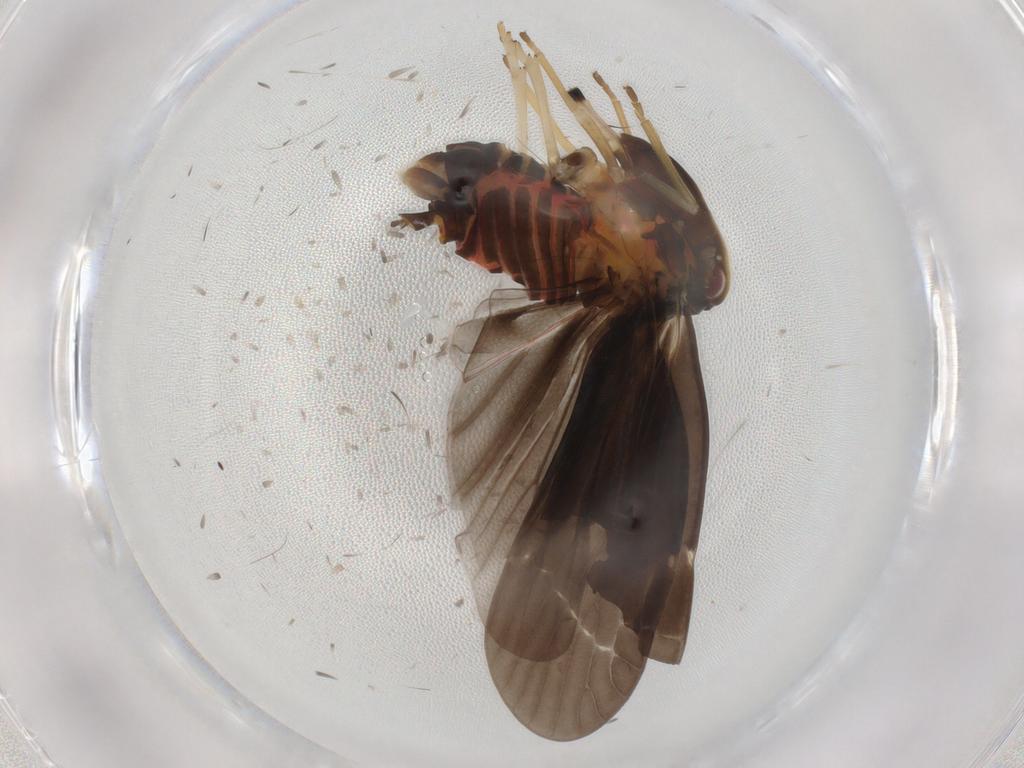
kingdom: Animalia
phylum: Arthropoda
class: Insecta
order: Hemiptera
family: Derbidae
